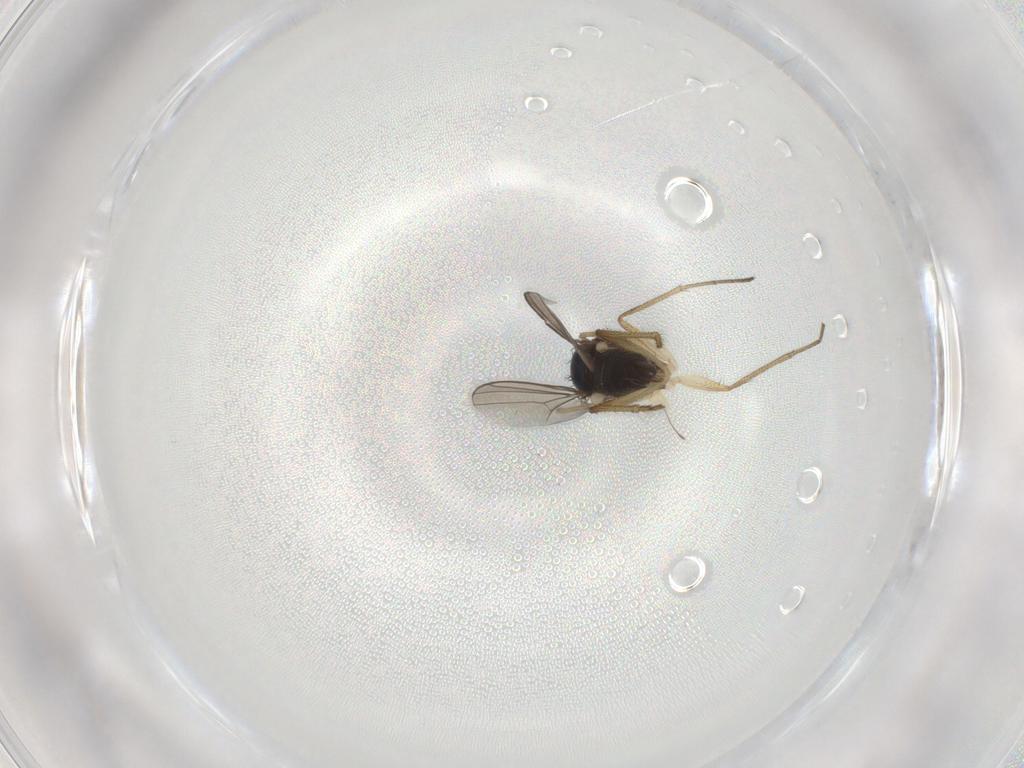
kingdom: Animalia
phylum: Arthropoda
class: Insecta
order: Diptera
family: Dolichopodidae
